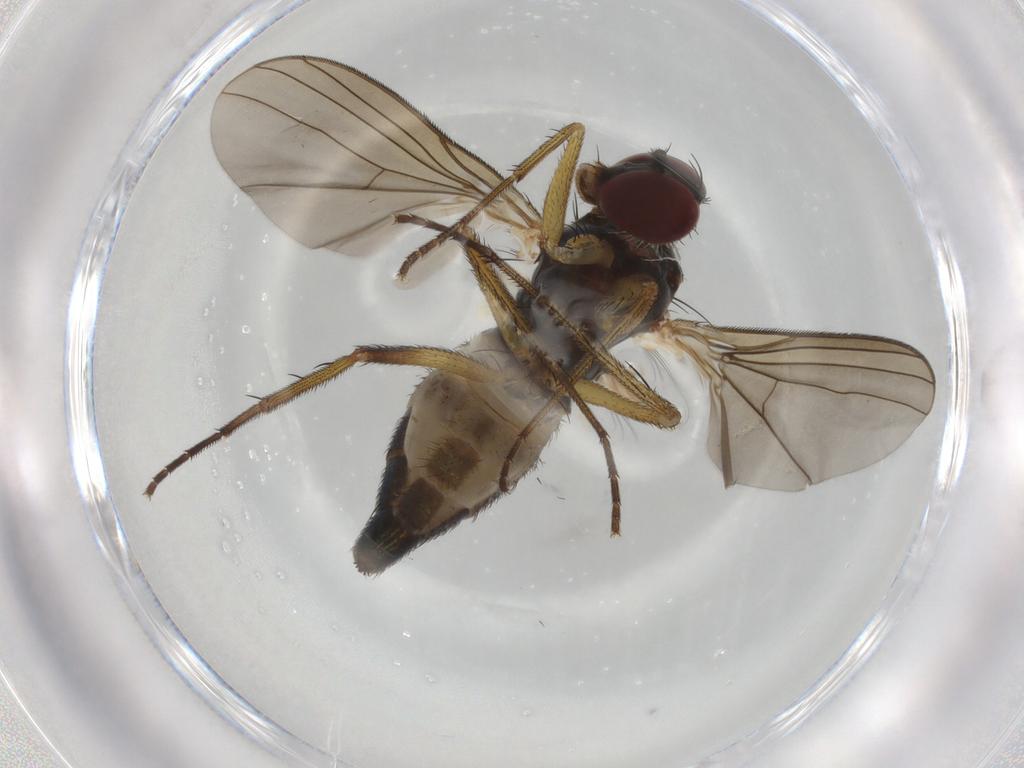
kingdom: Animalia
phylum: Arthropoda
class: Insecta
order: Diptera
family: Dolichopodidae
